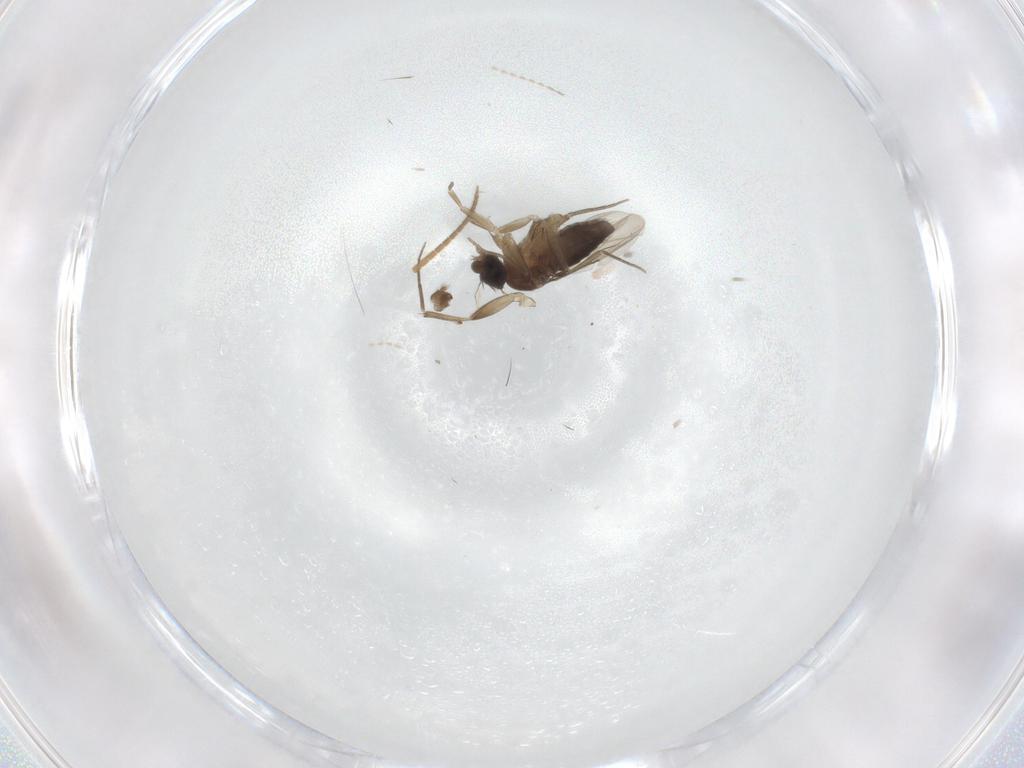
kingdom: Animalia
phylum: Arthropoda
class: Insecta
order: Diptera
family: Phoridae
